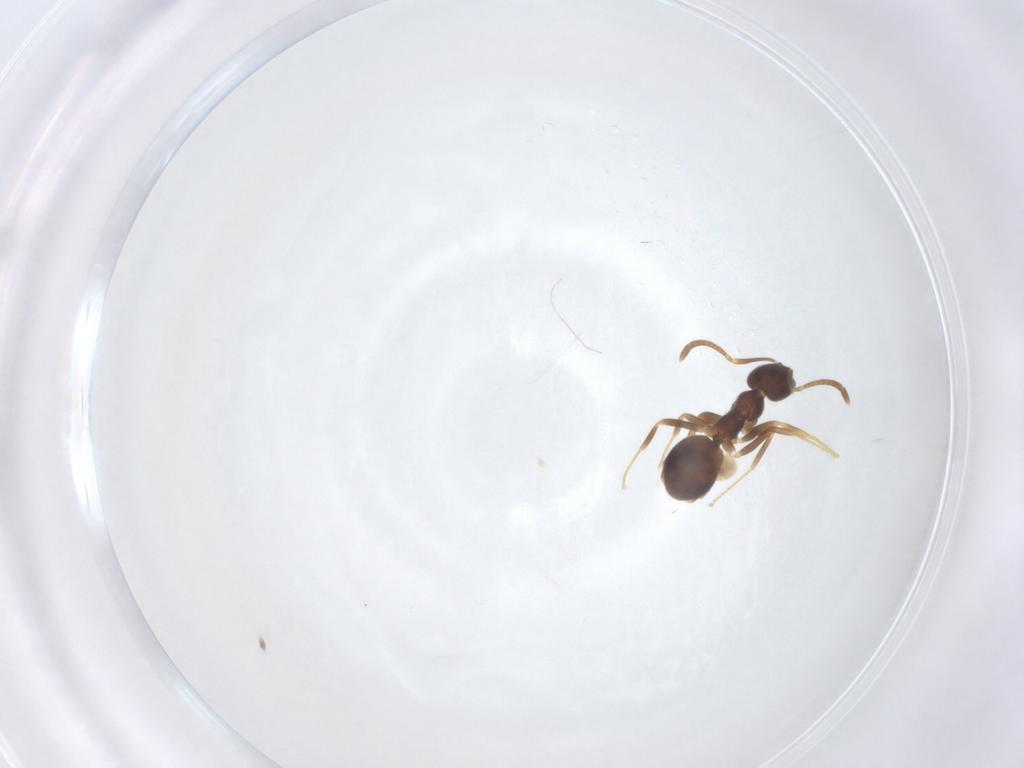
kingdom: Animalia
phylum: Arthropoda
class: Insecta
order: Hymenoptera
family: Formicidae
